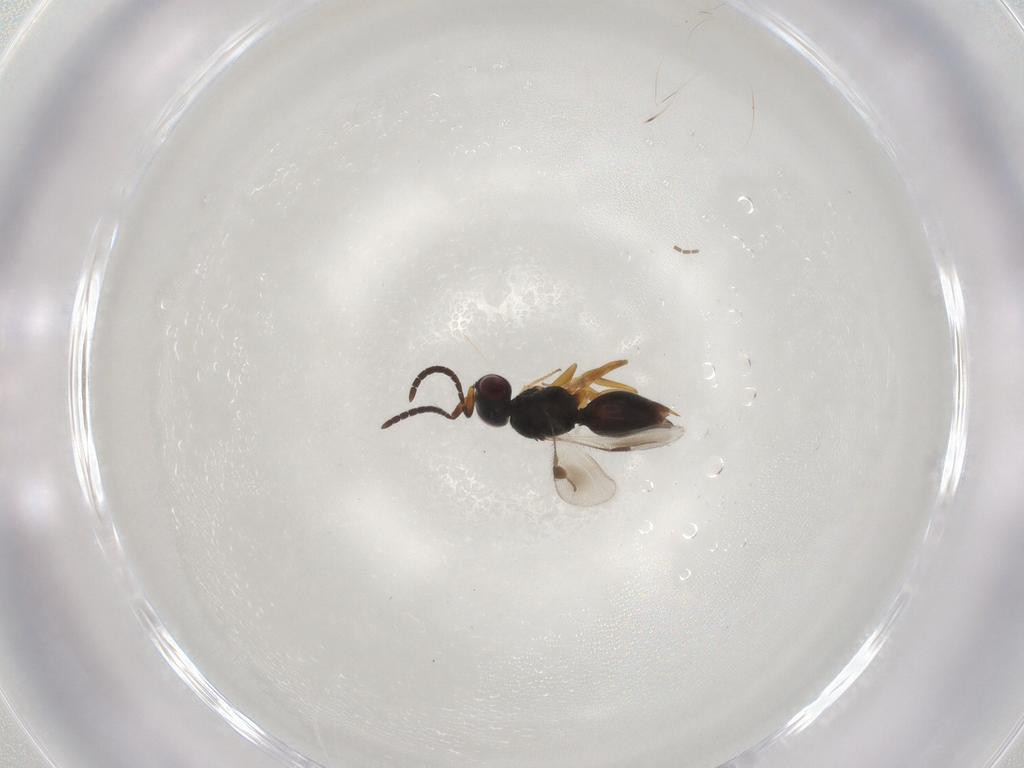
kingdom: Animalia
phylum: Arthropoda
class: Insecta
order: Hymenoptera
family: Megaspilidae
